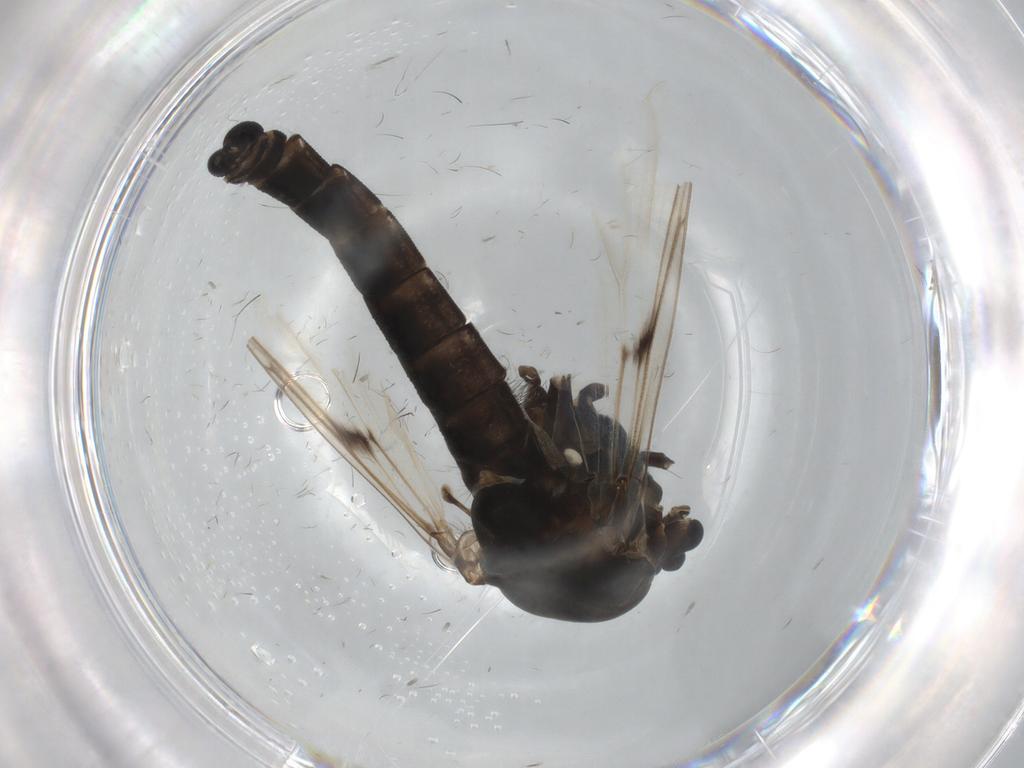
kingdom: Animalia
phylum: Arthropoda
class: Insecta
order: Diptera
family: Chironomidae
